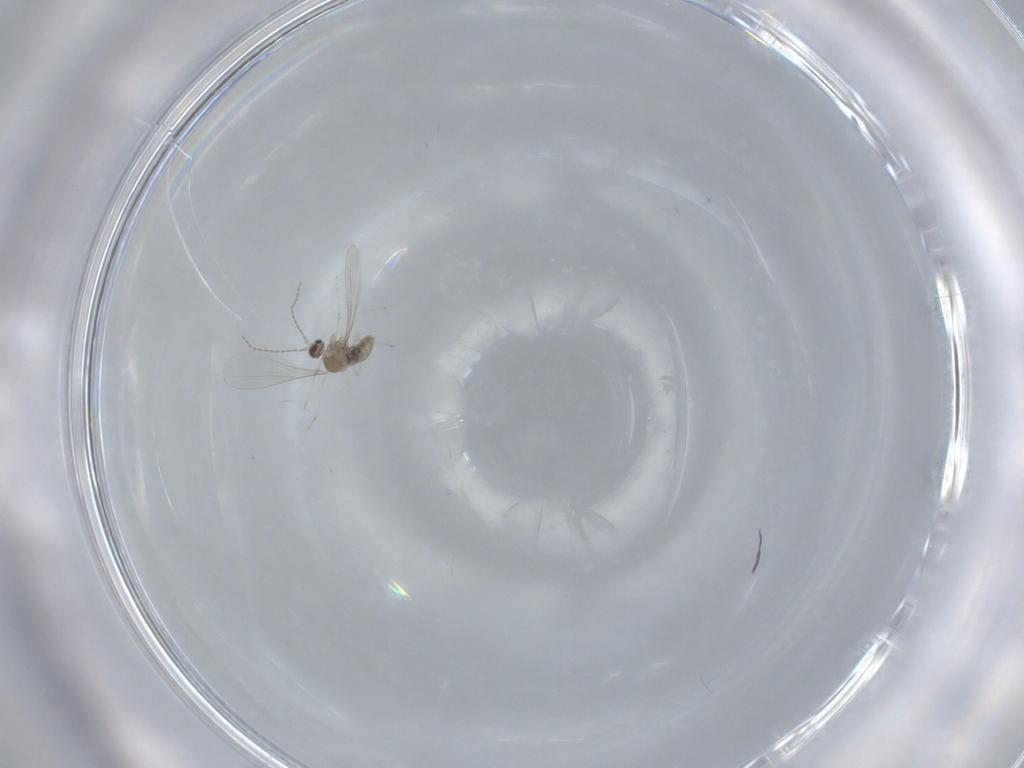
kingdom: Animalia
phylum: Arthropoda
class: Insecta
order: Diptera
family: Cecidomyiidae
